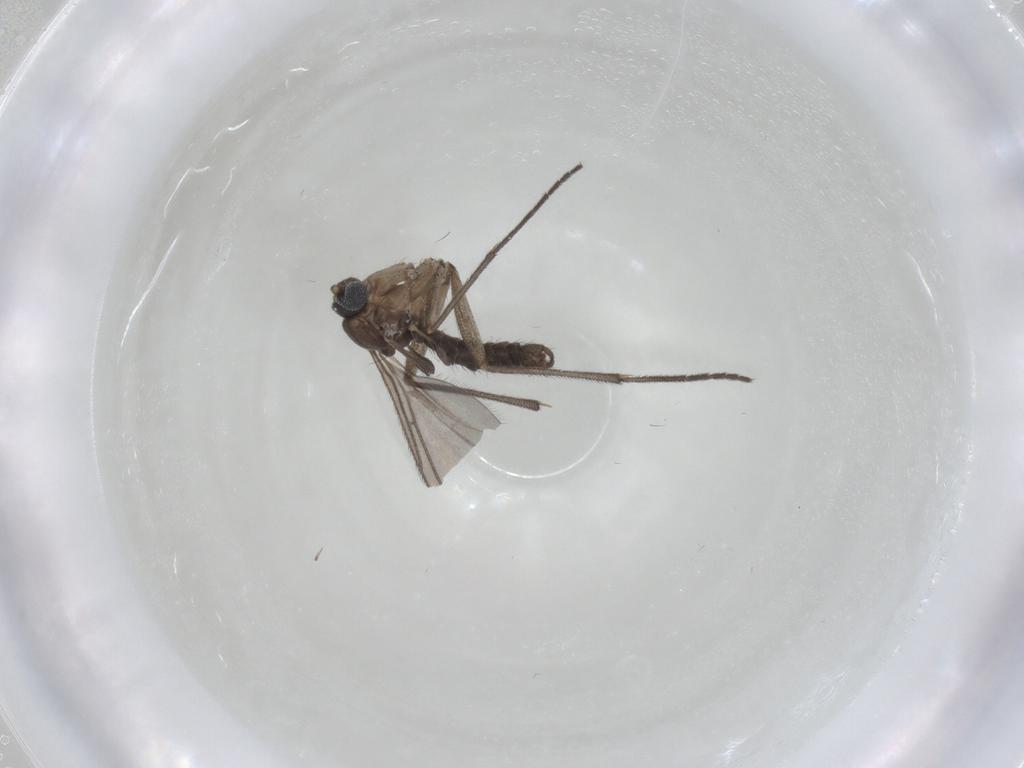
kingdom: Animalia
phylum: Arthropoda
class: Insecta
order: Diptera
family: Sciaridae
